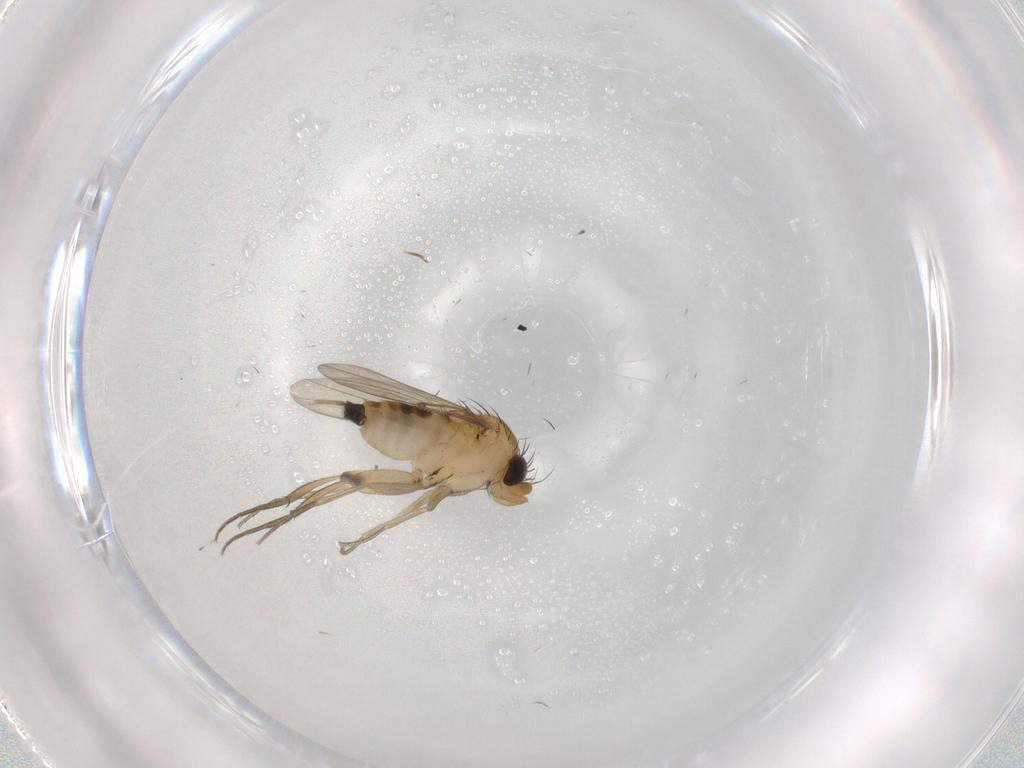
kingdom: Animalia
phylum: Arthropoda
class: Insecta
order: Diptera
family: Phoridae
